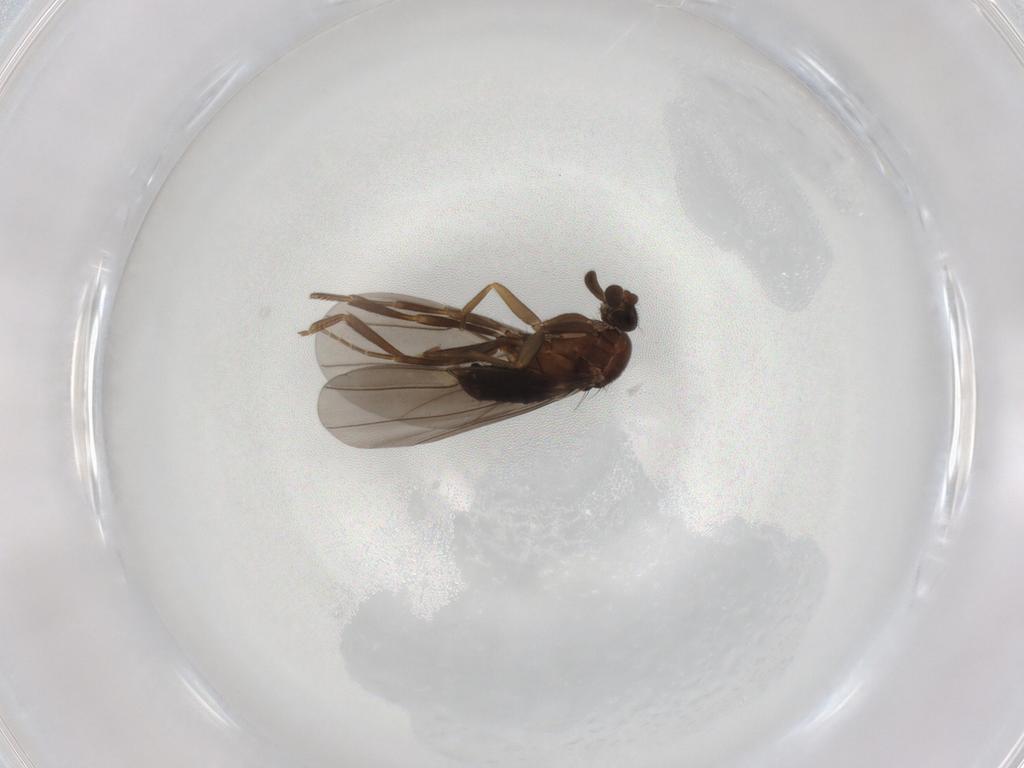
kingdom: Animalia
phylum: Arthropoda
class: Insecta
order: Diptera
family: Chironomidae
